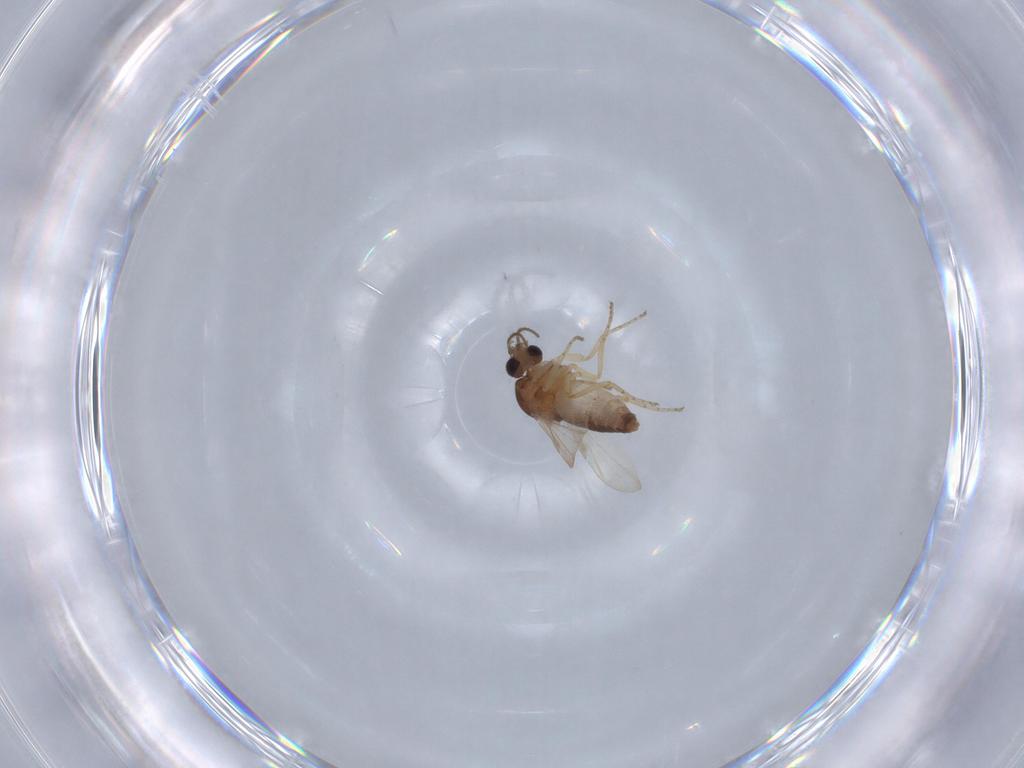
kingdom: Animalia
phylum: Arthropoda
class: Insecta
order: Diptera
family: Ceratopogonidae
